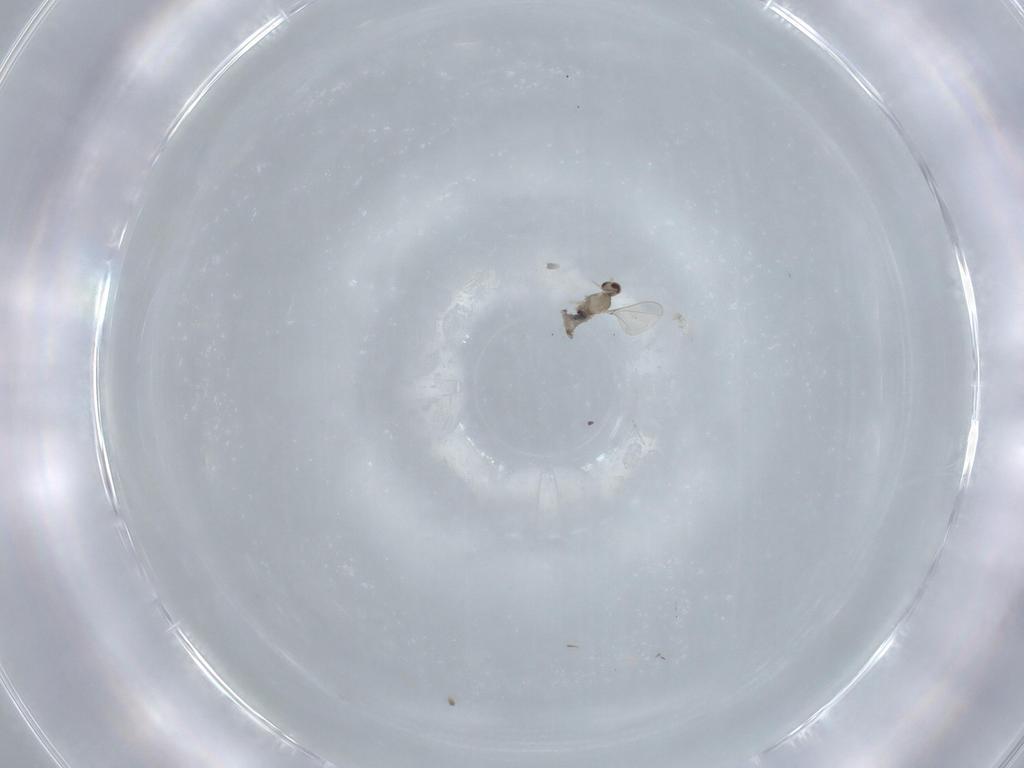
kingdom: Animalia
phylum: Arthropoda
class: Insecta
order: Diptera
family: Cecidomyiidae
